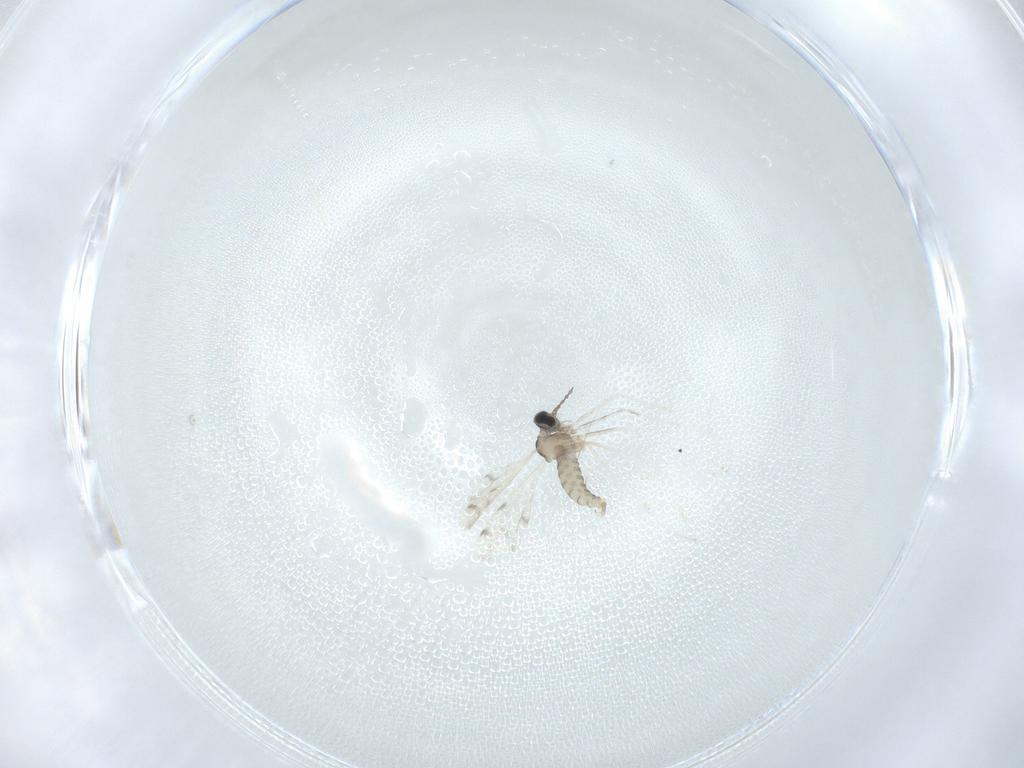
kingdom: Animalia
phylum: Arthropoda
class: Insecta
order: Diptera
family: Cecidomyiidae
